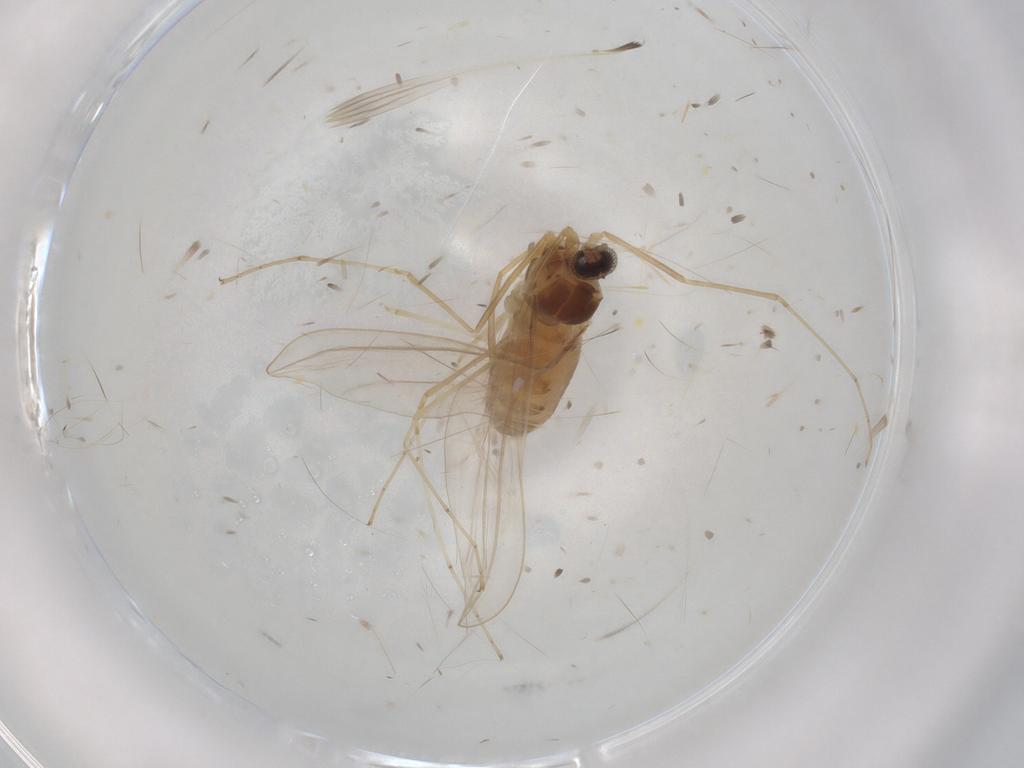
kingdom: Animalia
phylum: Arthropoda
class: Insecta
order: Diptera
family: Cecidomyiidae
